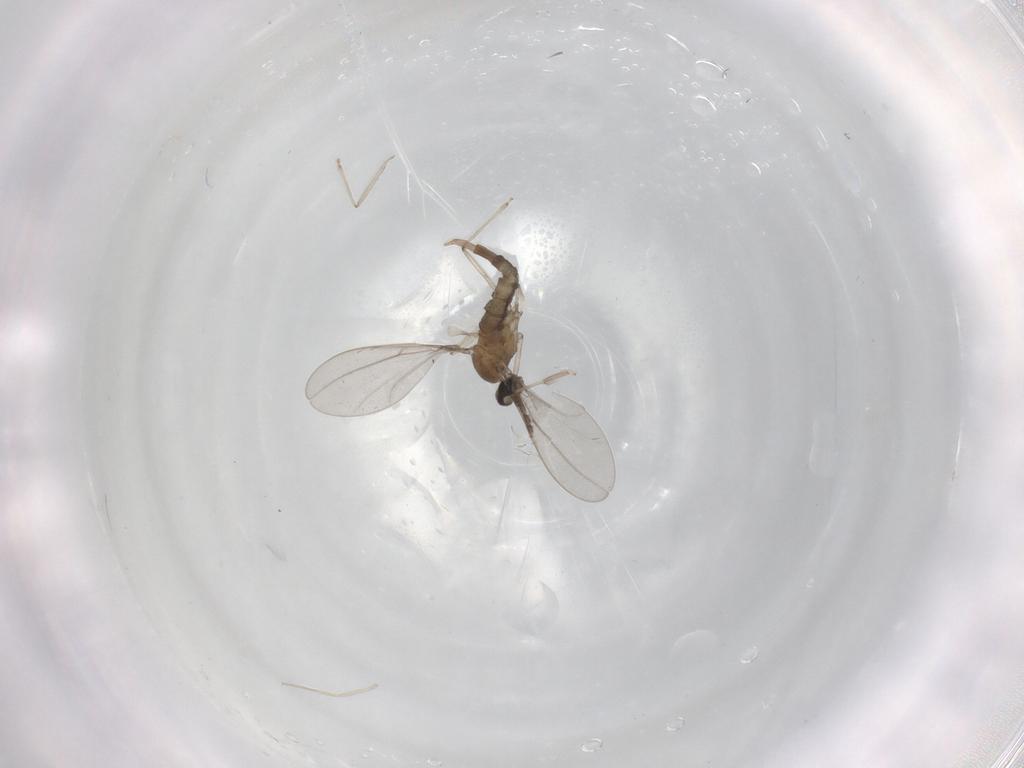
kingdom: Animalia
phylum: Arthropoda
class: Insecta
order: Diptera
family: Cecidomyiidae
